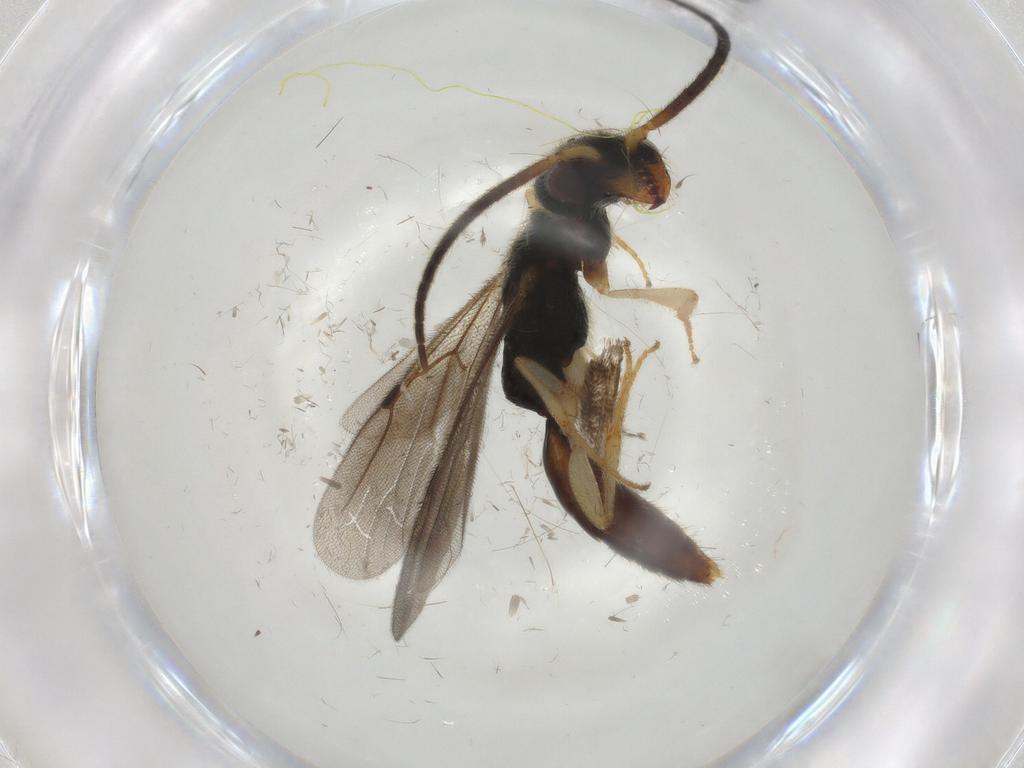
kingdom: Animalia
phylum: Arthropoda
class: Insecta
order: Hymenoptera
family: Bethylidae
